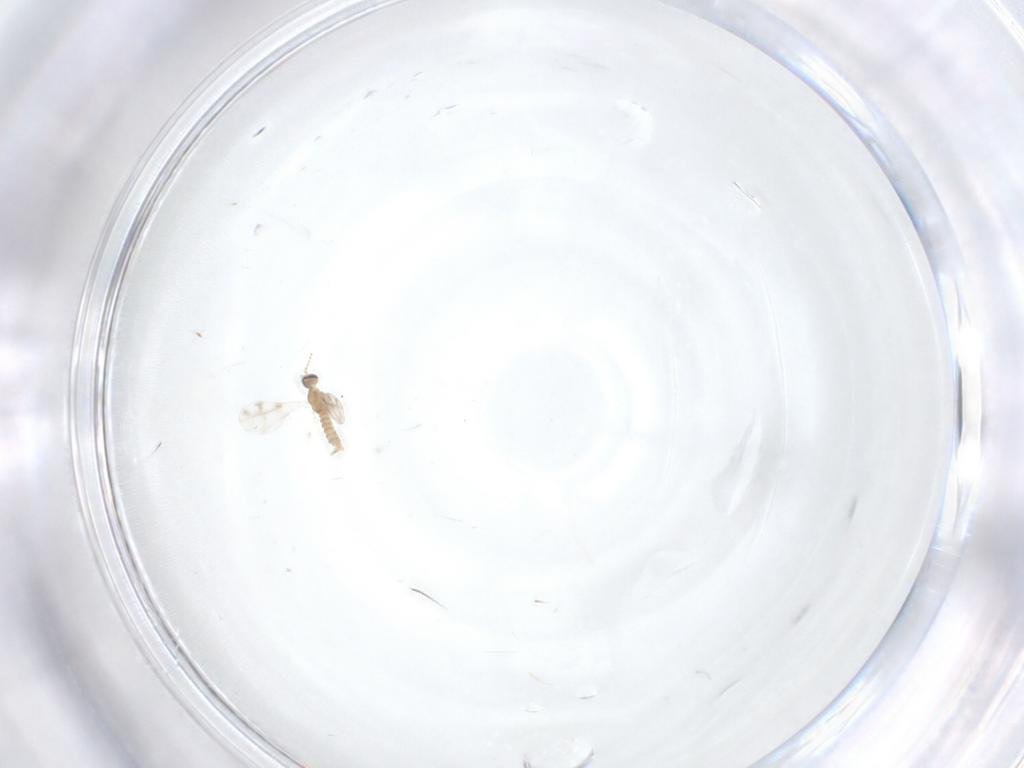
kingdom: Animalia
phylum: Arthropoda
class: Insecta
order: Diptera
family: Cecidomyiidae
